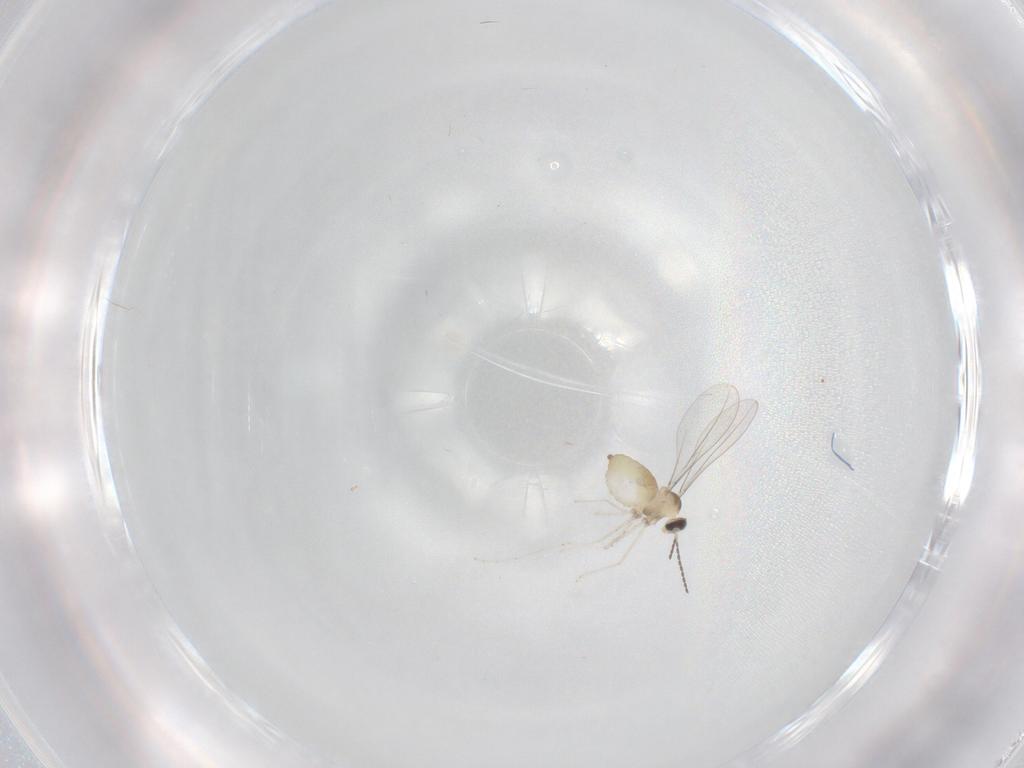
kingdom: Animalia
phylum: Arthropoda
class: Insecta
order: Diptera
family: Cecidomyiidae
